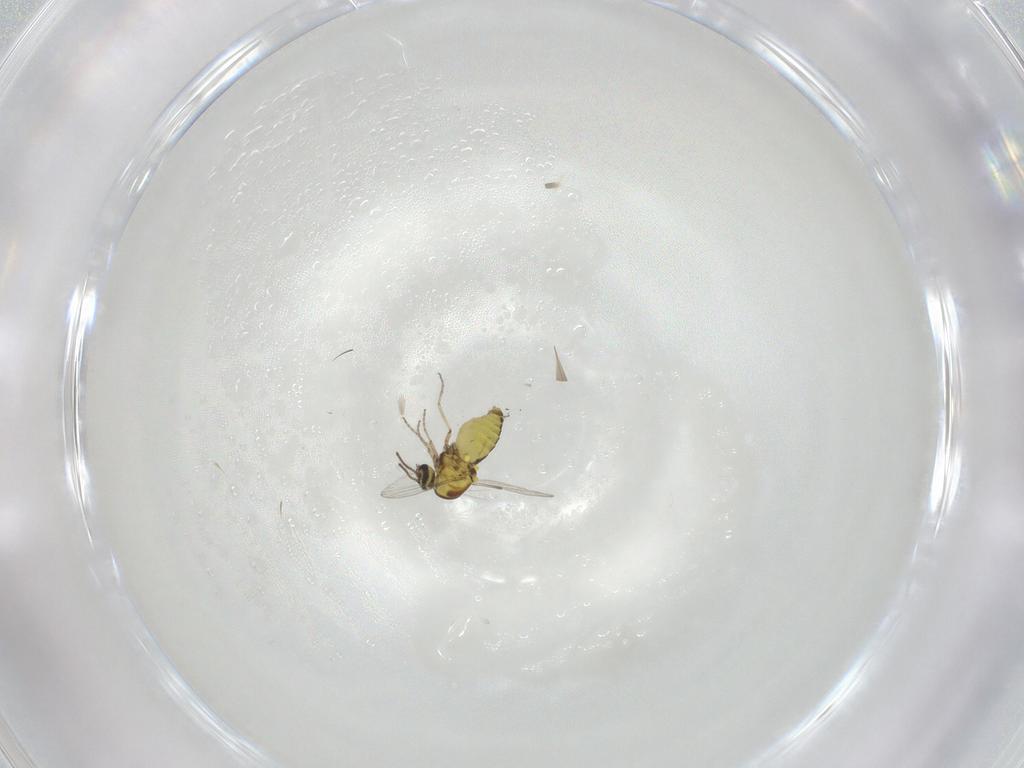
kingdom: Animalia
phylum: Arthropoda
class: Insecta
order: Diptera
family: Ceratopogonidae
